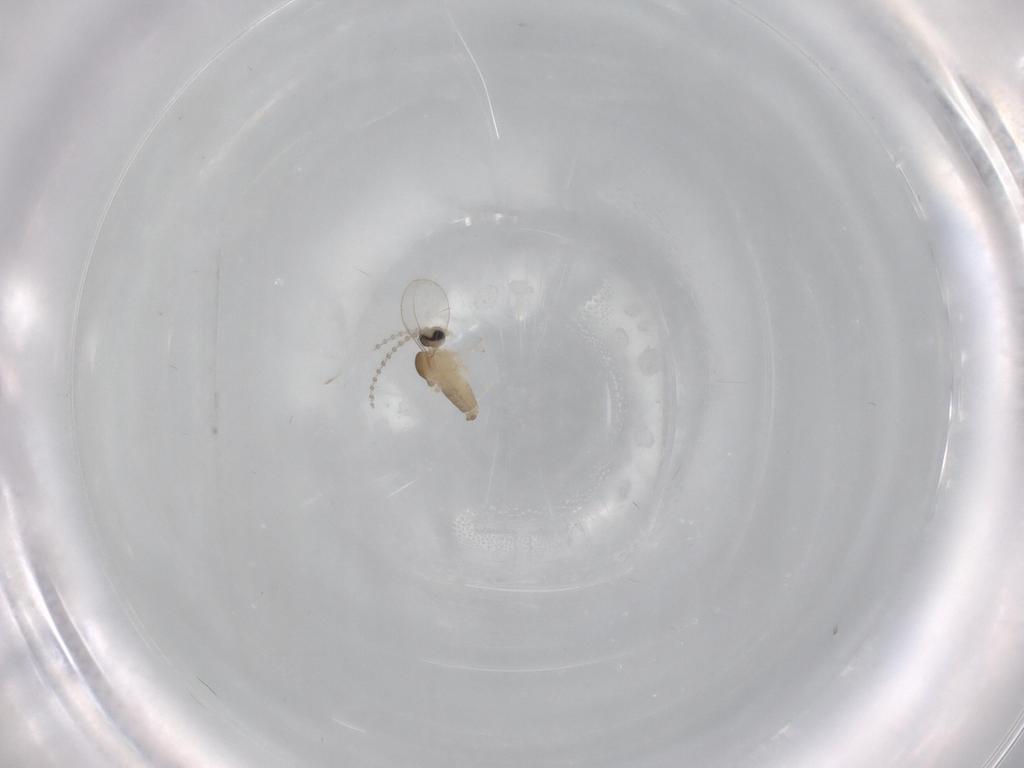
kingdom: Animalia
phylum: Arthropoda
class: Insecta
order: Diptera
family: Cecidomyiidae
